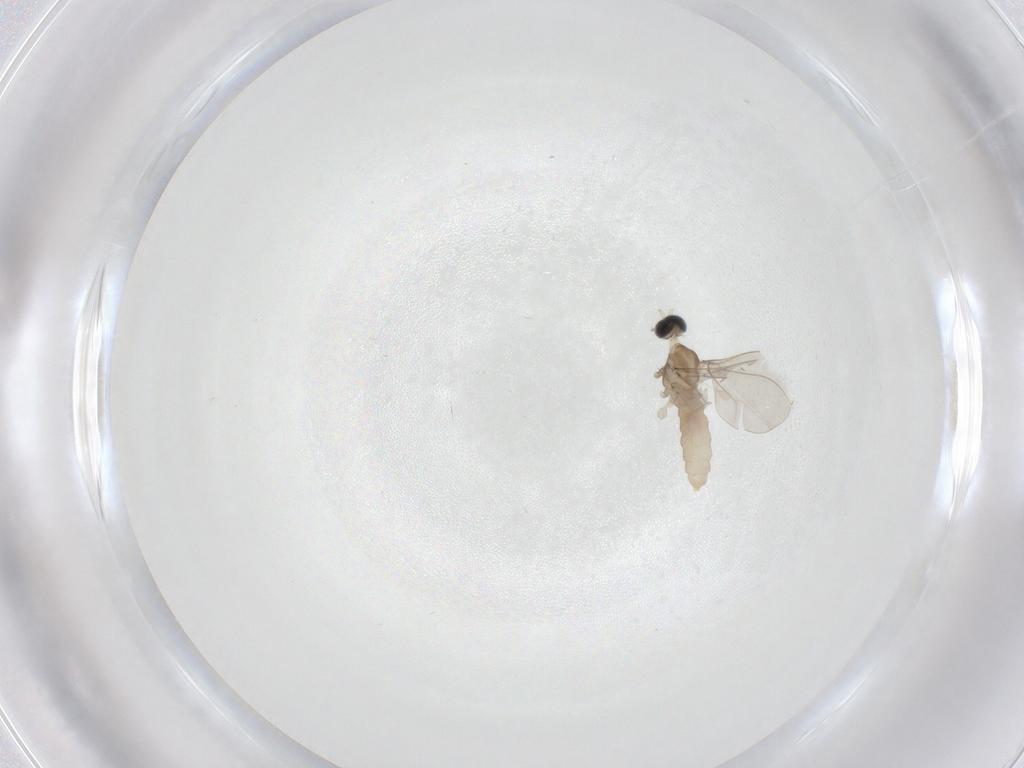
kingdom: Animalia
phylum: Arthropoda
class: Insecta
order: Diptera
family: Cecidomyiidae
